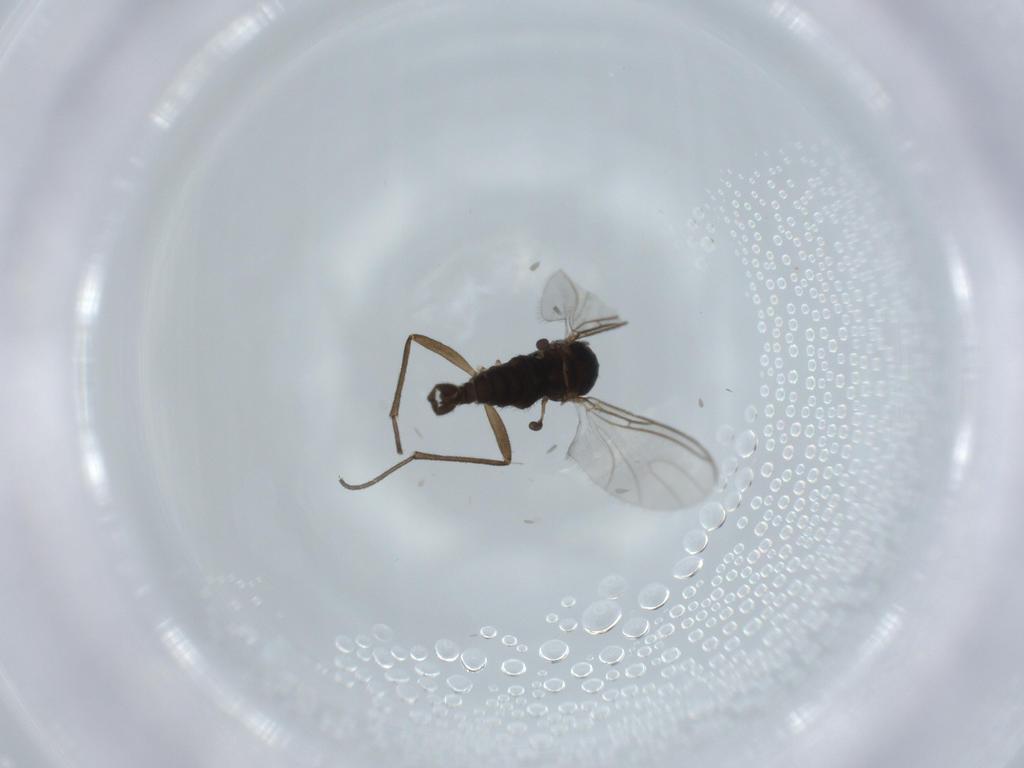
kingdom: Animalia
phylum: Arthropoda
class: Insecta
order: Diptera
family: Sciaridae
